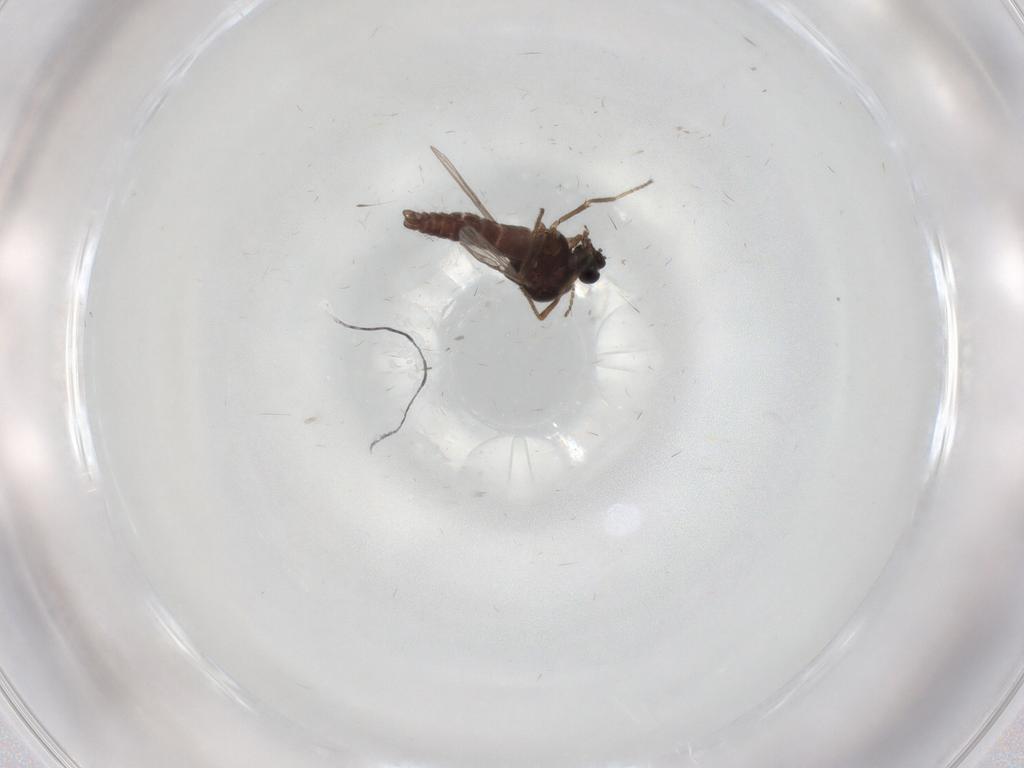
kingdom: Animalia
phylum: Arthropoda
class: Insecta
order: Diptera
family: Ceratopogonidae
